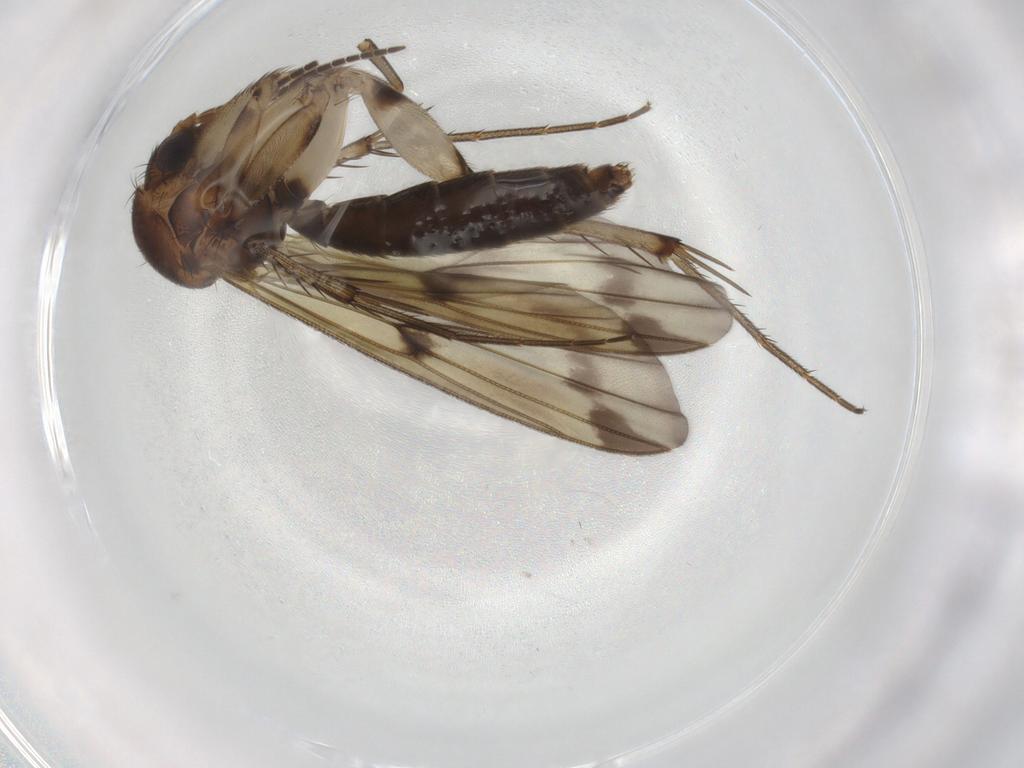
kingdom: Animalia
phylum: Arthropoda
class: Insecta
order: Diptera
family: Mycetophilidae
